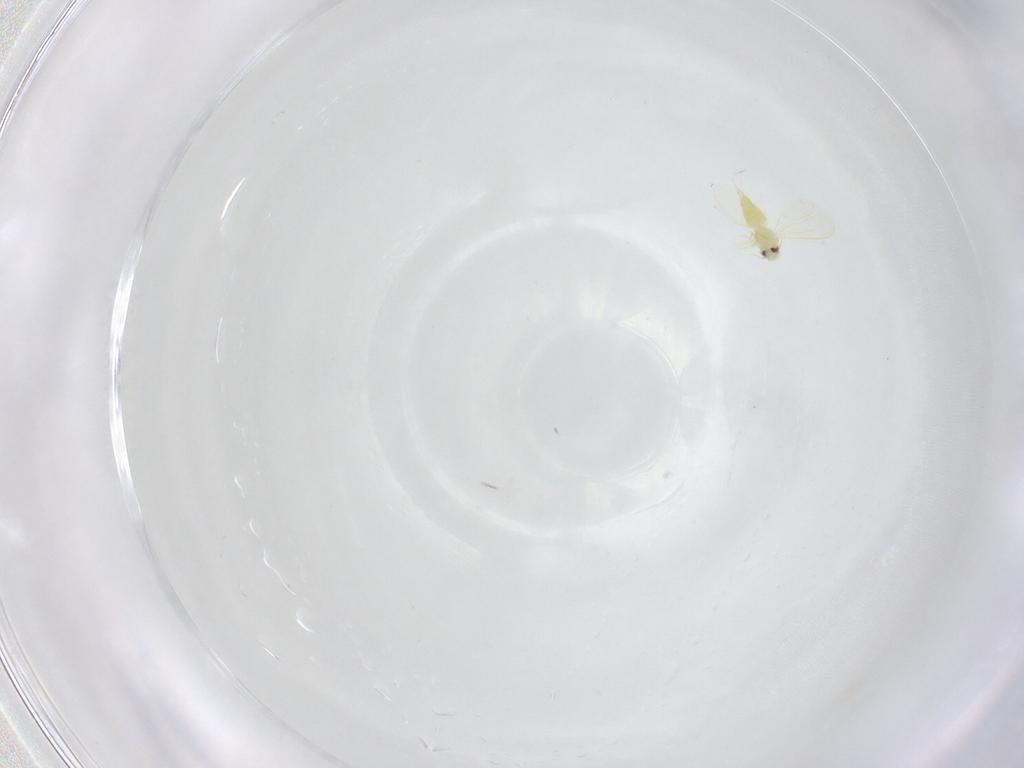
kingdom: Animalia
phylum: Arthropoda
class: Insecta
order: Hemiptera
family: Aleyrodidae
